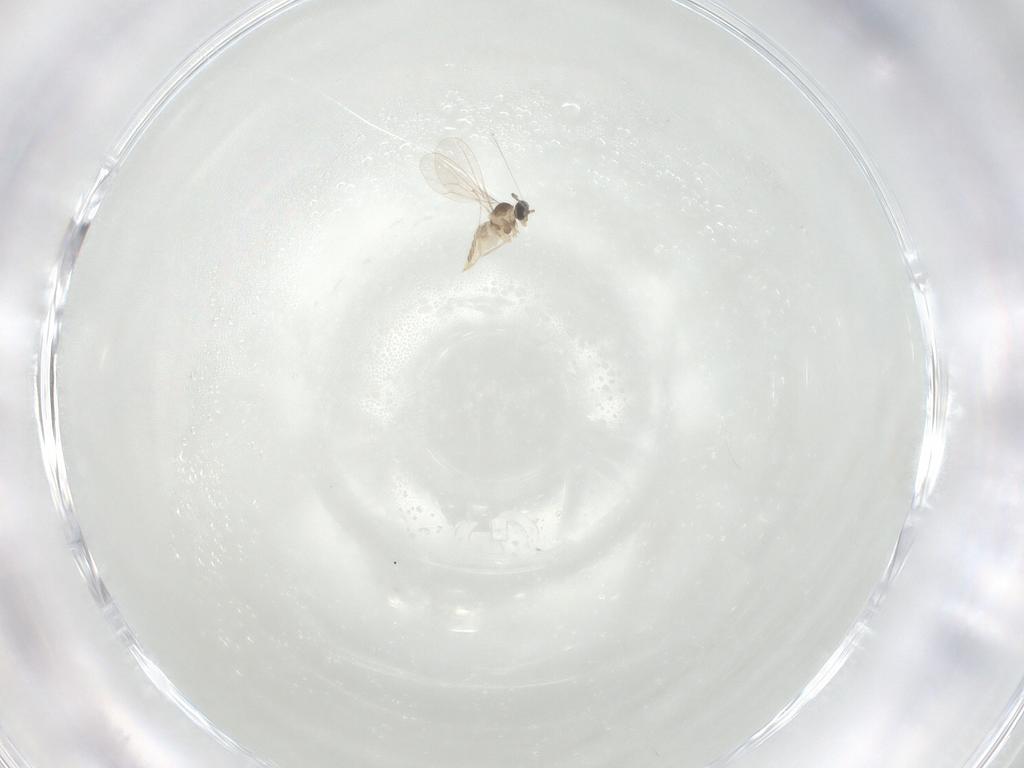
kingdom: Animalia
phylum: Arthropoda
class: Insecta
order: Diptera
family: Cecidomyiidae
